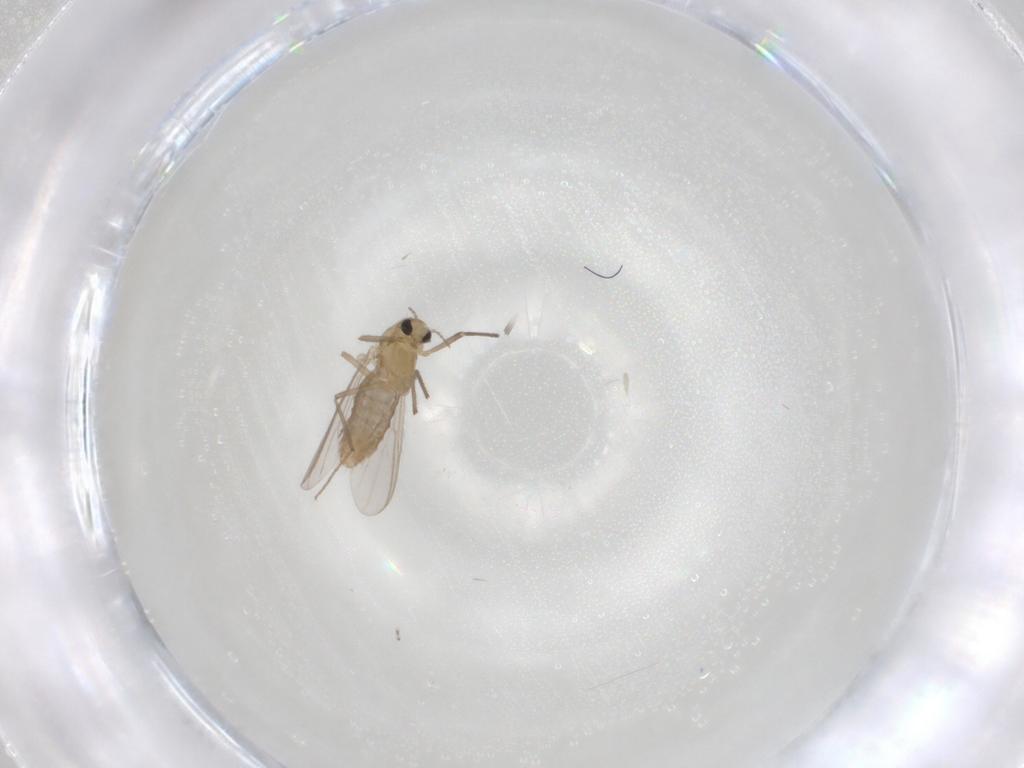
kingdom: Animalia
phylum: Arthropoda
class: Insecta
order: Diptera
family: Chironomidae
